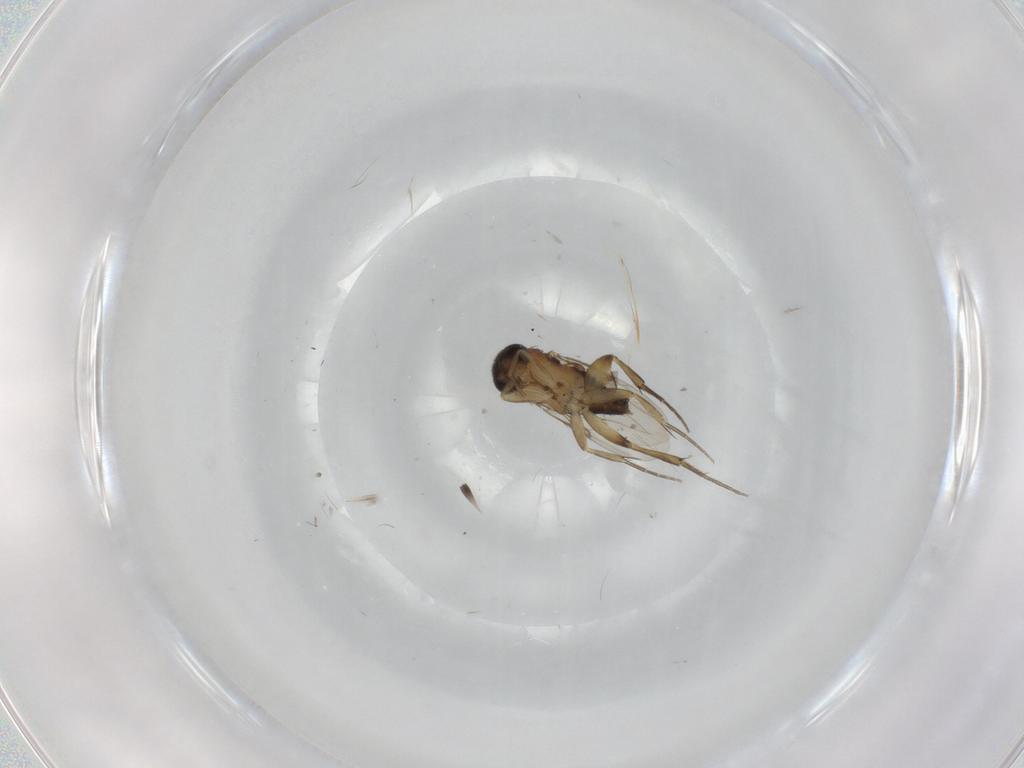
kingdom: Animalia
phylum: Arthropoda
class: Insecta
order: Diptera
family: Phoridae
